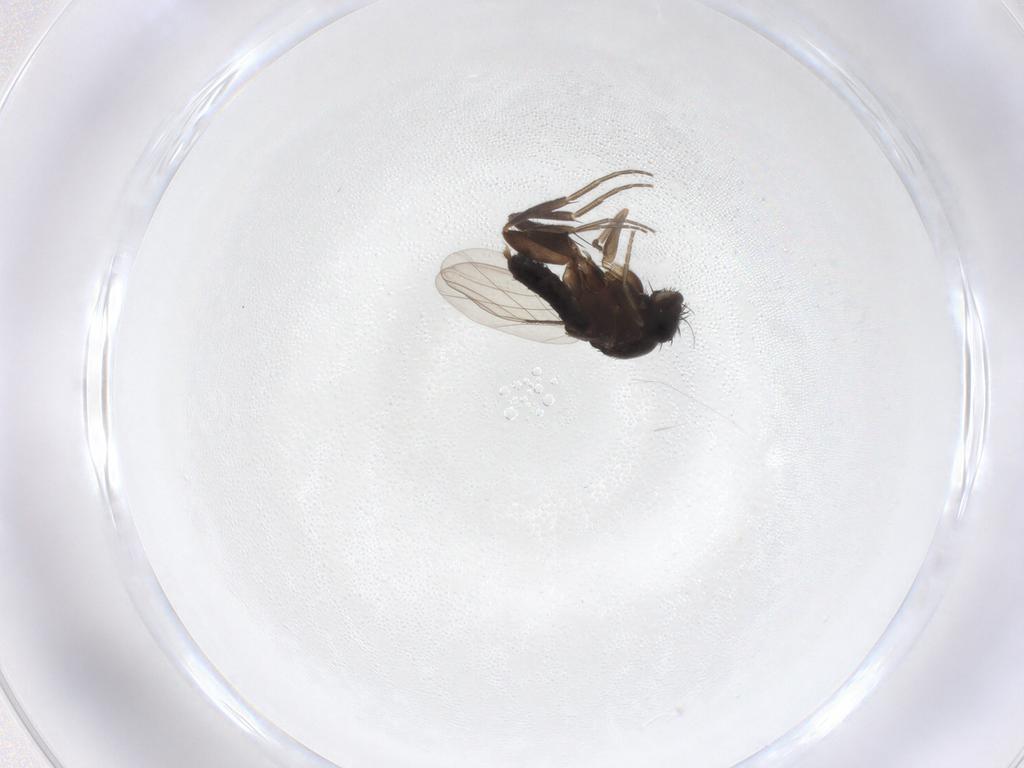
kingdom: Animalia
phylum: Arthropoda
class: Insecta
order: Diptera
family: Phoridae
